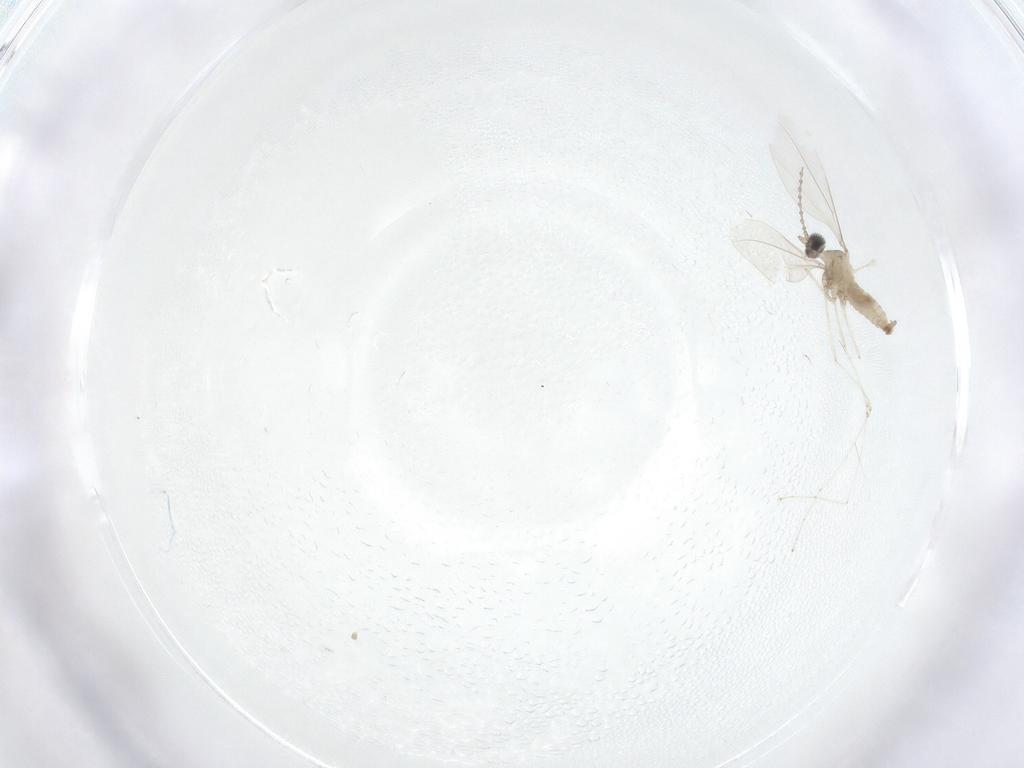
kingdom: Animalia
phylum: Arthropoda
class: Insecta
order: Diptera
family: Cecidomyiidae
